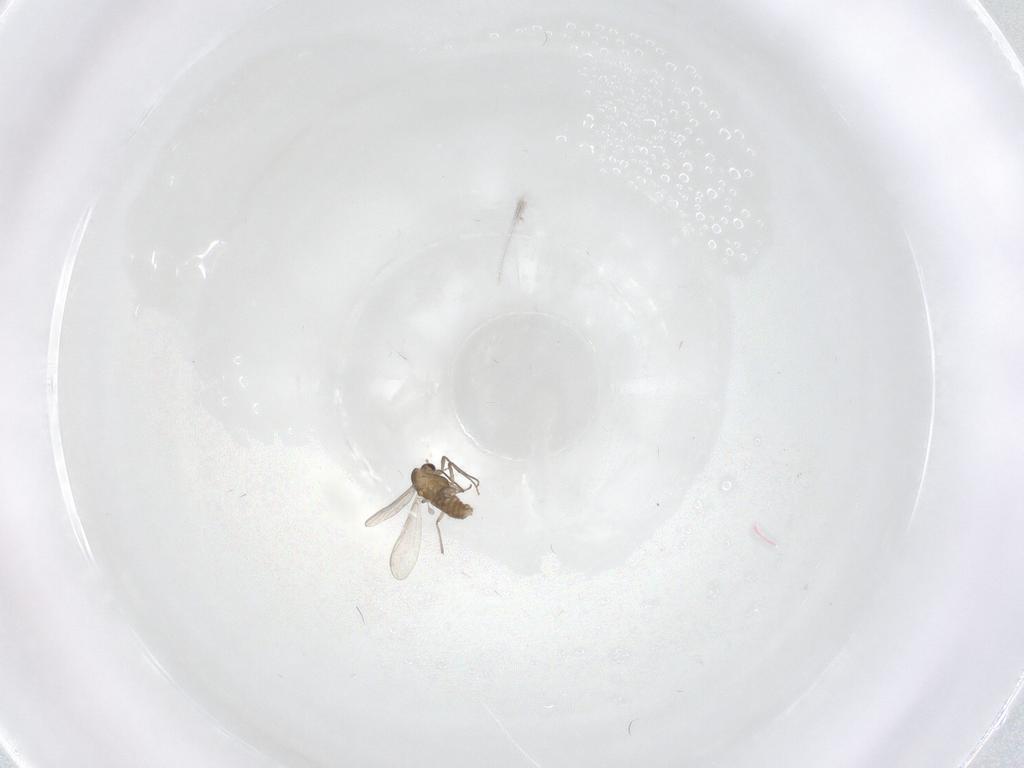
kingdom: Animalia
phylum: Arthropoda
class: Insecta
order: Diptera
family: Chironomidae
